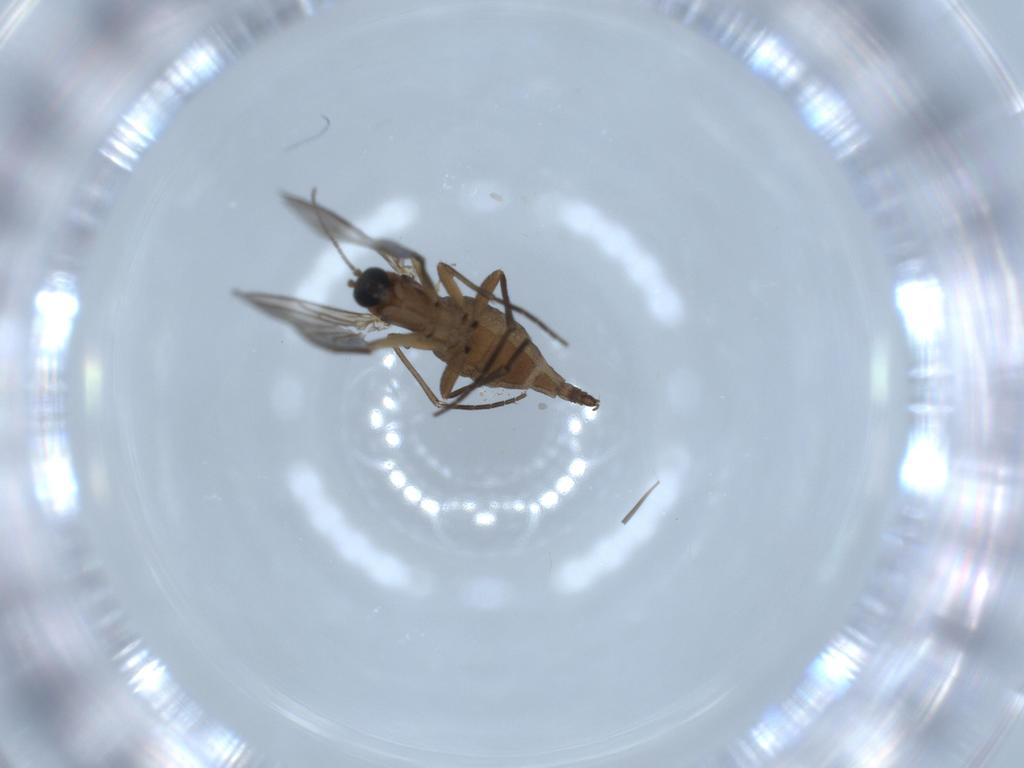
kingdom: Animalia
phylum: Arthropoda
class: Insecta
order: Diptera
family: Sciaridae
